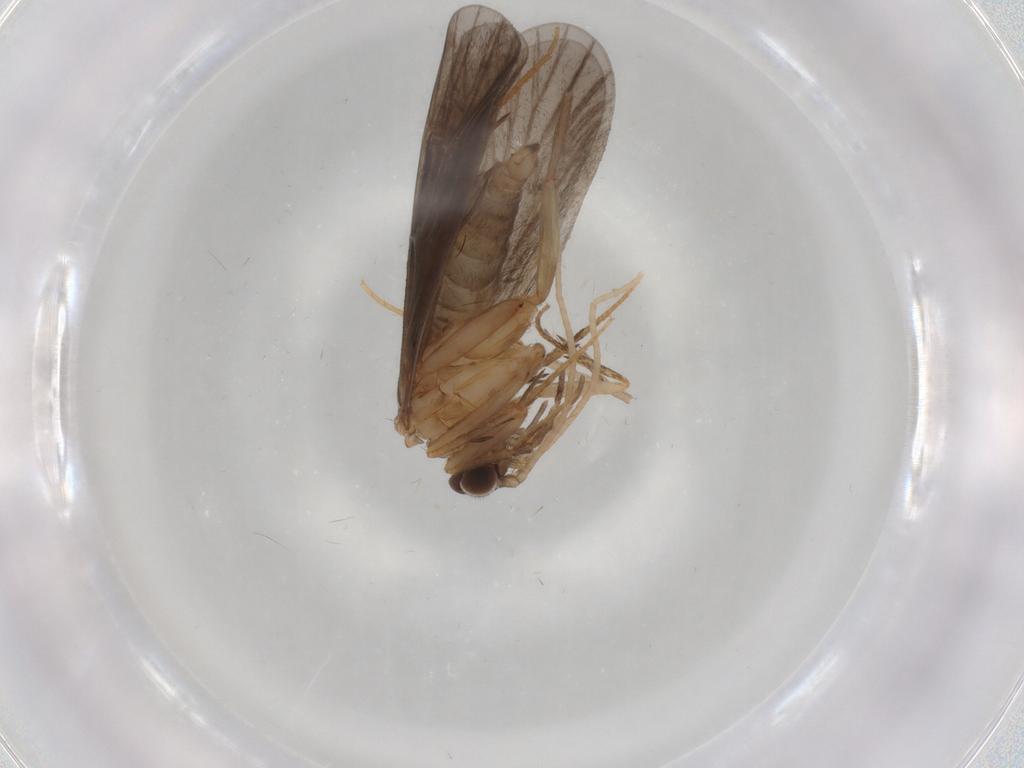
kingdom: Animalia
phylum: Arthropoda
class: Insecta
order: Trichoptera
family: Philopotamidae
